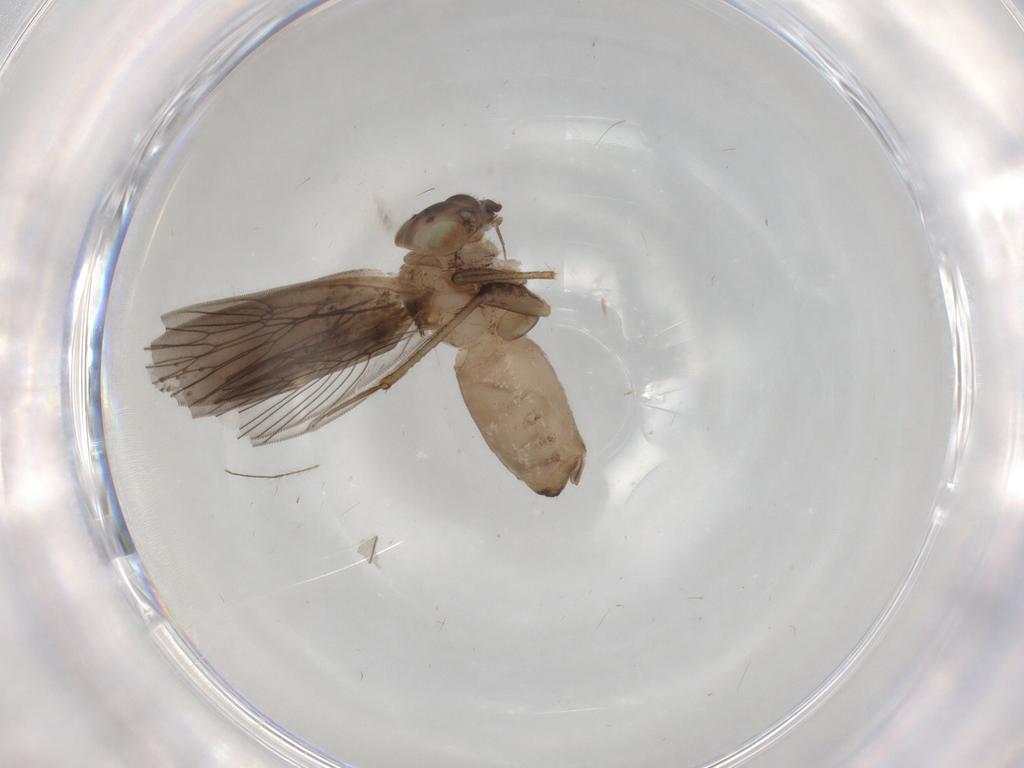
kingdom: Animalia
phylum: Arthropoda
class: Insecta
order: Psocodea
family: Lepidopsocidae
